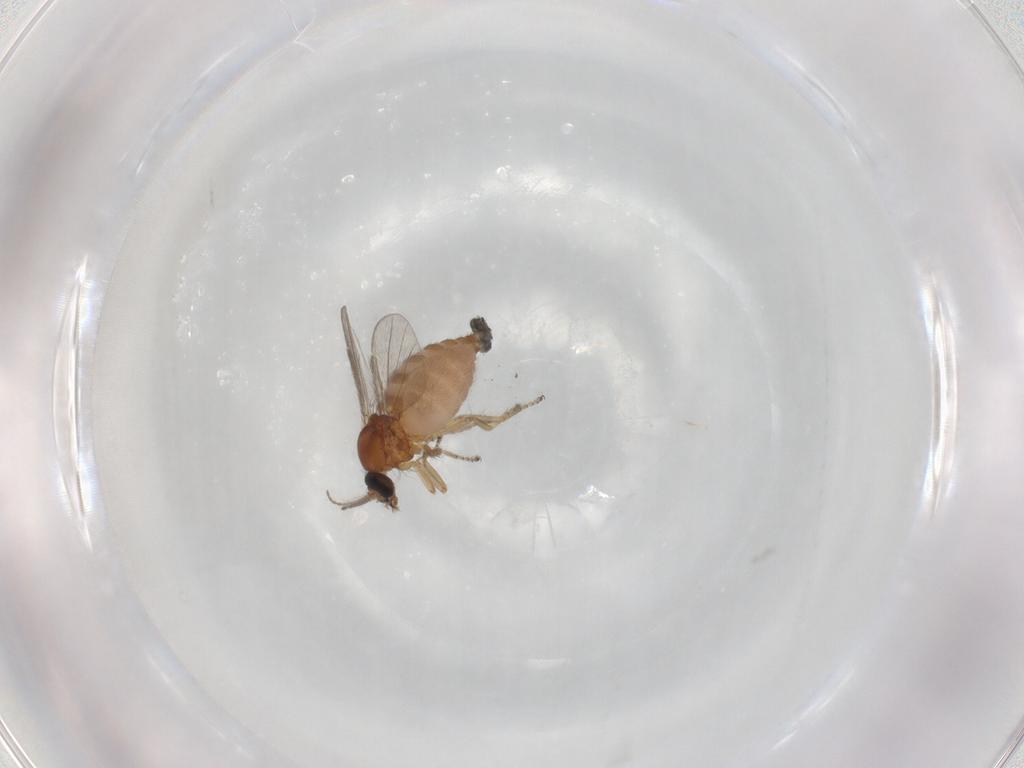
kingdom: Animalia
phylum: Arthropoda
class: Insecta
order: Diptera
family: Ceratopogonidae
